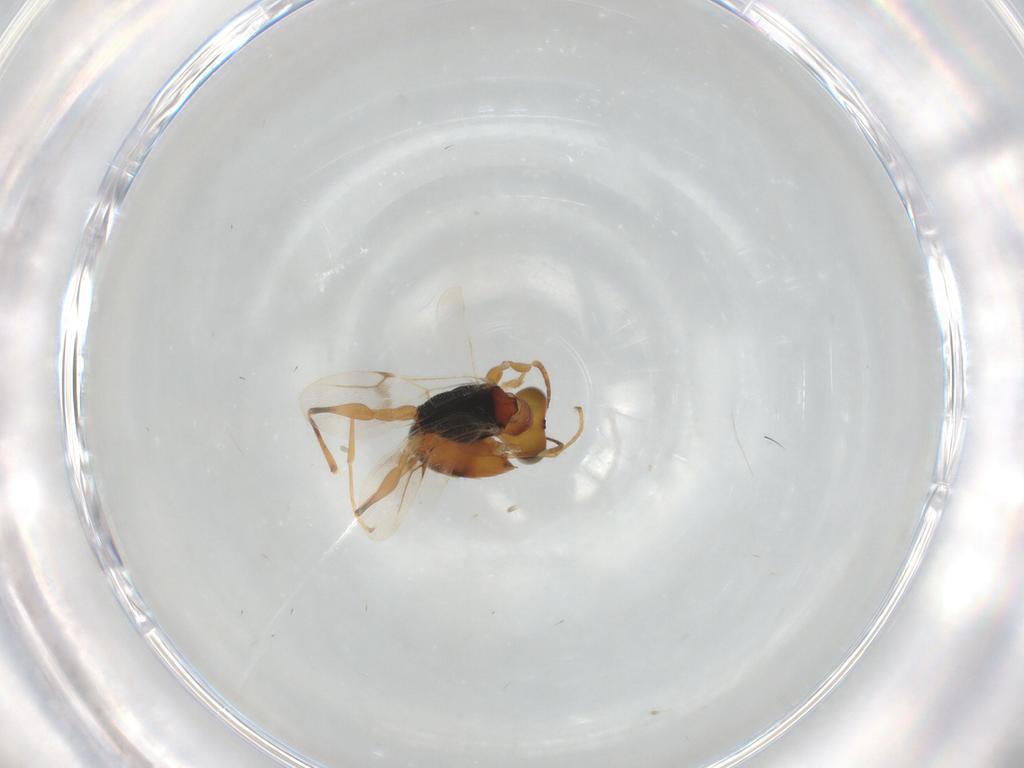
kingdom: Animalia
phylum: Arthropoda
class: Insecta
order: Hymenoptera
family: Dryinidae
